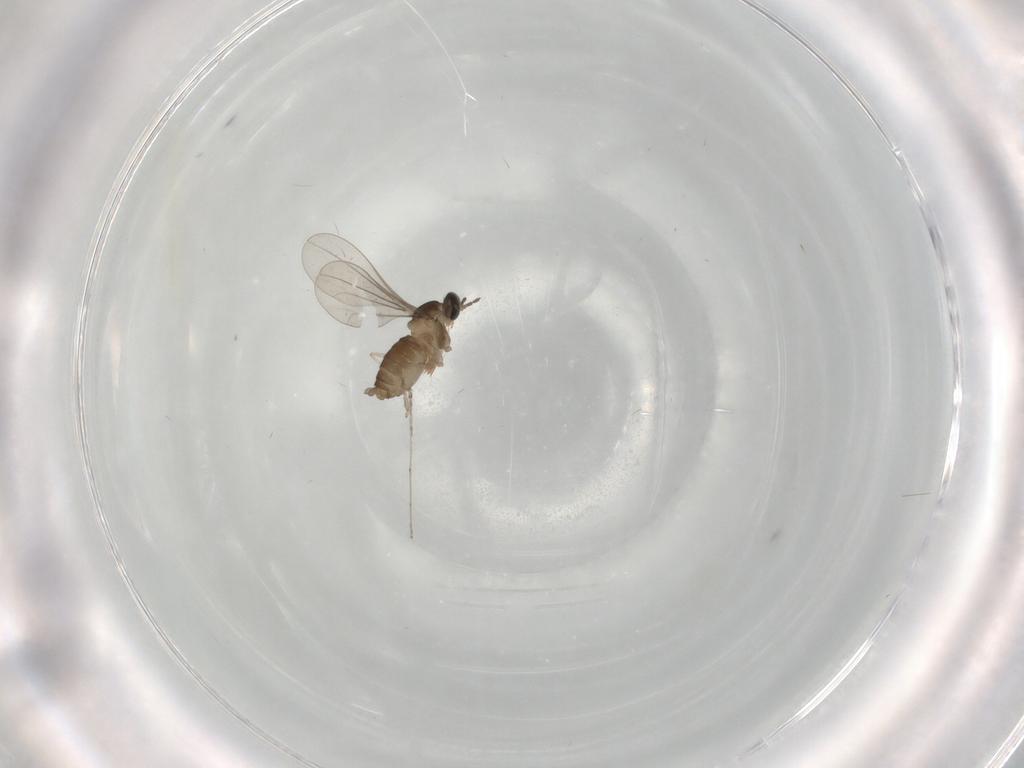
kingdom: Animalia
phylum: Arthropoda
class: Insecta
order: Diptera
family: Cecidomyiidae
